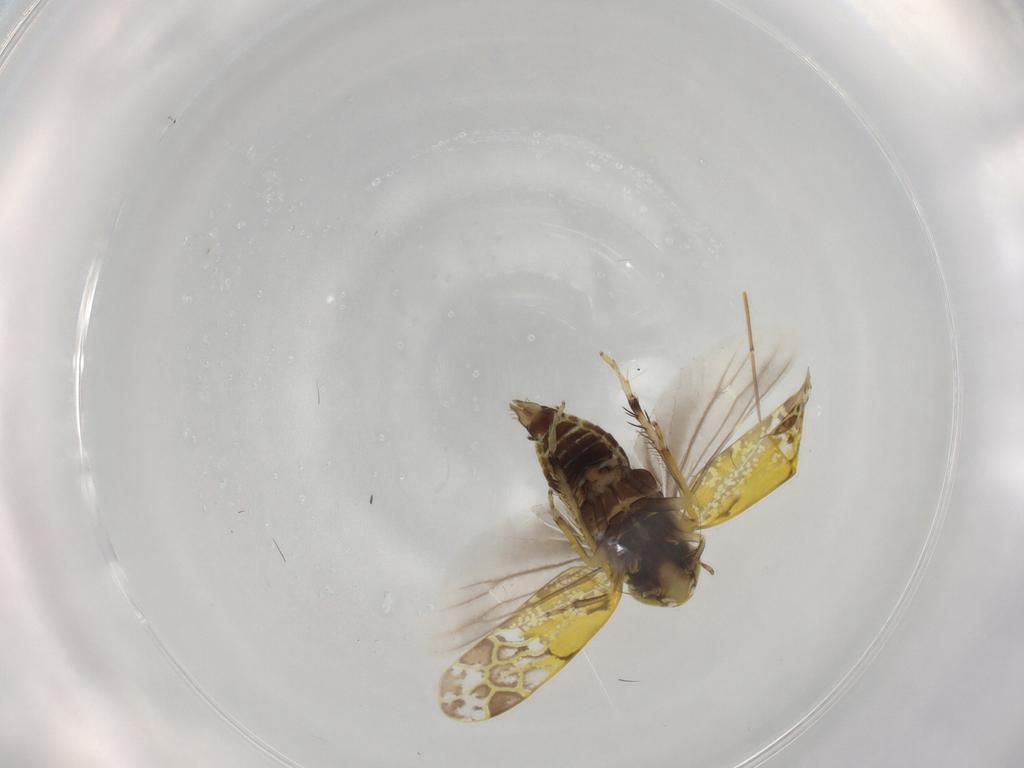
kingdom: Animalia
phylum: Arthropoda
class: Insecta
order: Hemiptera
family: Cicadellidae
